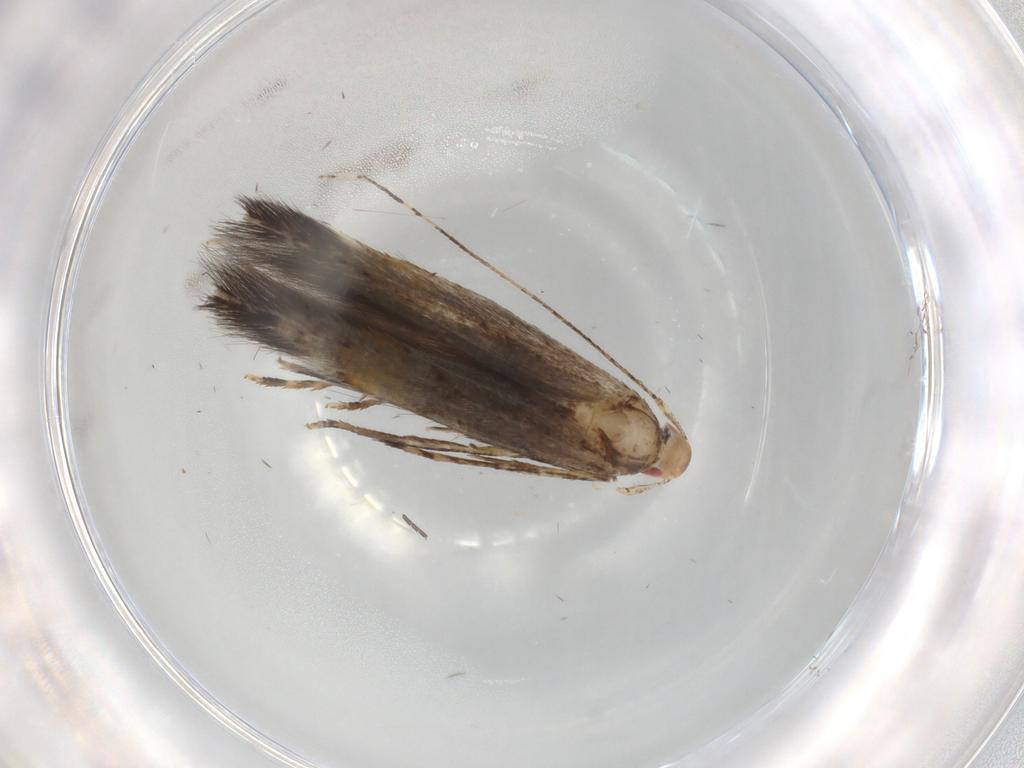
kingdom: Animalia
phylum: Arthropoda
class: Insecta
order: Lepidoptera
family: Cosmopterigidae
